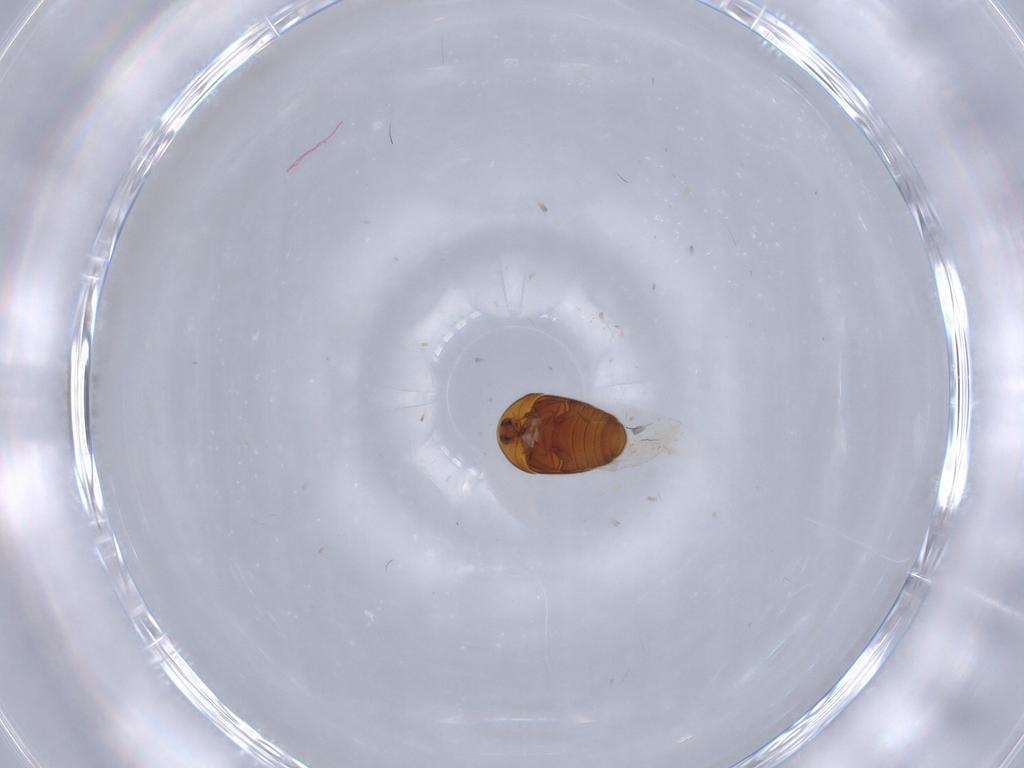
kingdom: Animalia
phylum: Arthropoda
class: Insecta
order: Coleoptera
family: Corylophidae
